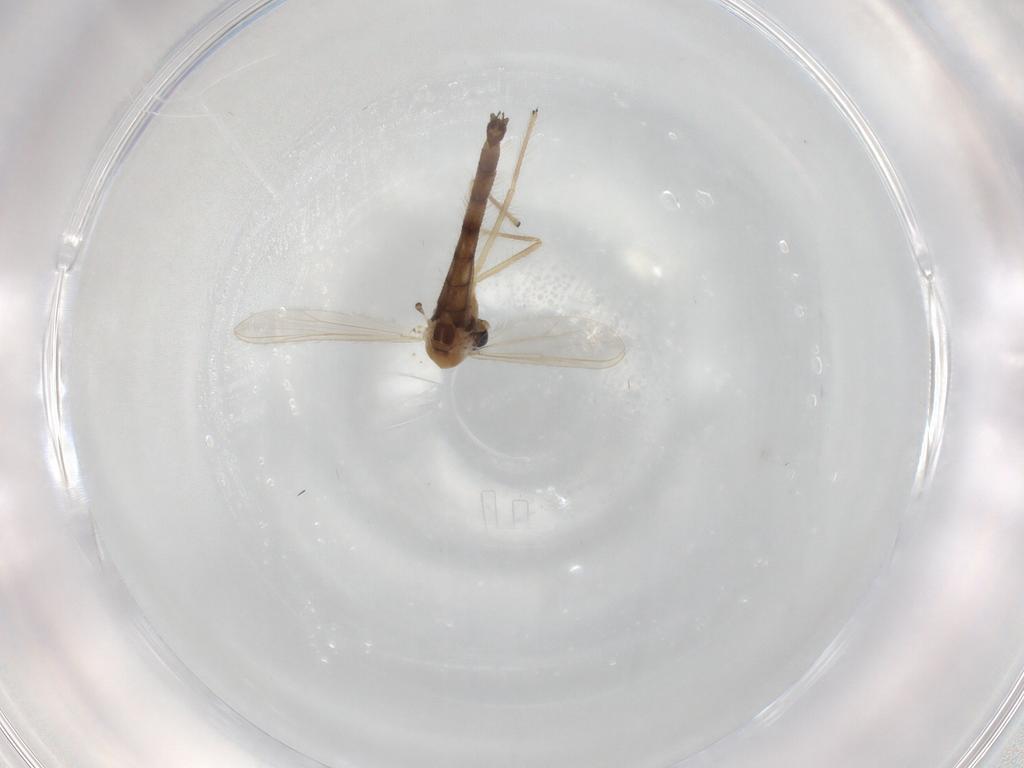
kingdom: Animalia
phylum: Arthropoda
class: Insecta
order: Diptera
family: Chironomidae
